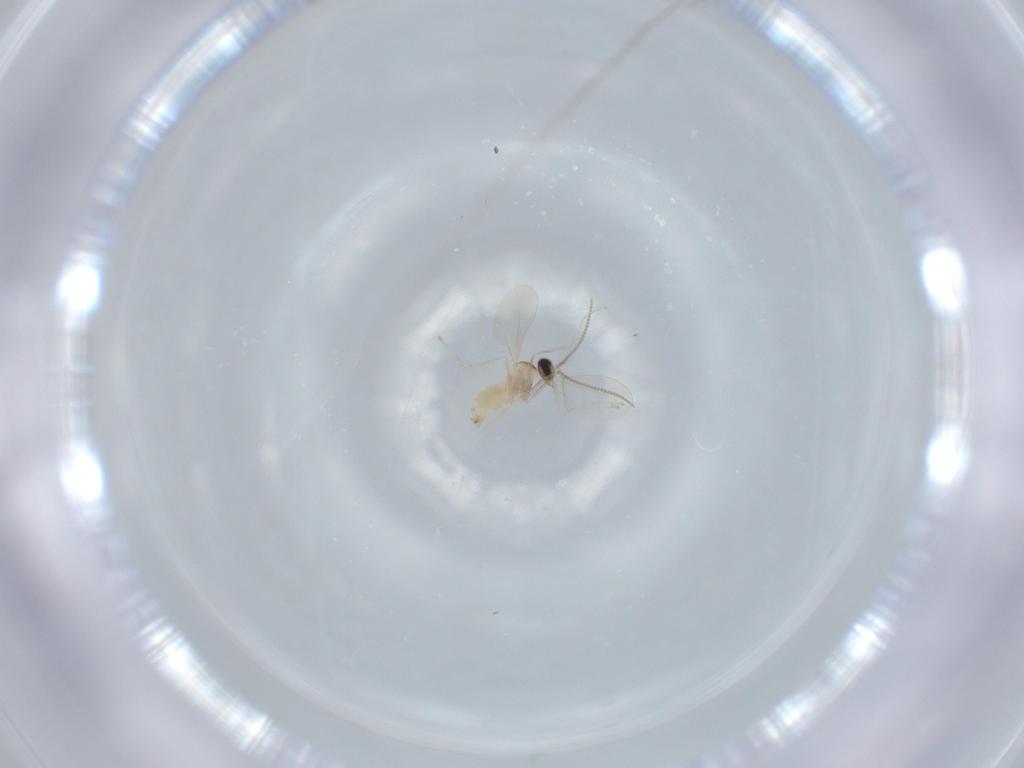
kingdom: Animalia
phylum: Arthropoda
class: Insecta
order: Diptera
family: Cecidomyiidae
